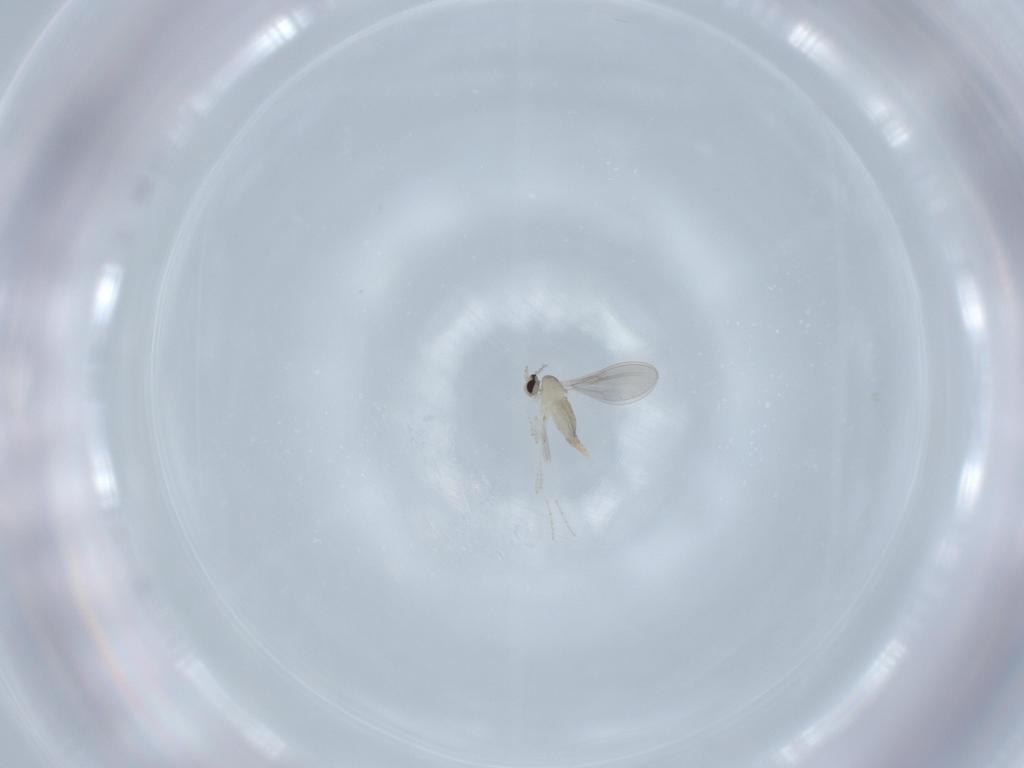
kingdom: Animalia
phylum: Arthropoda
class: Insecta
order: Diptera
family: Cecidomyiidae
